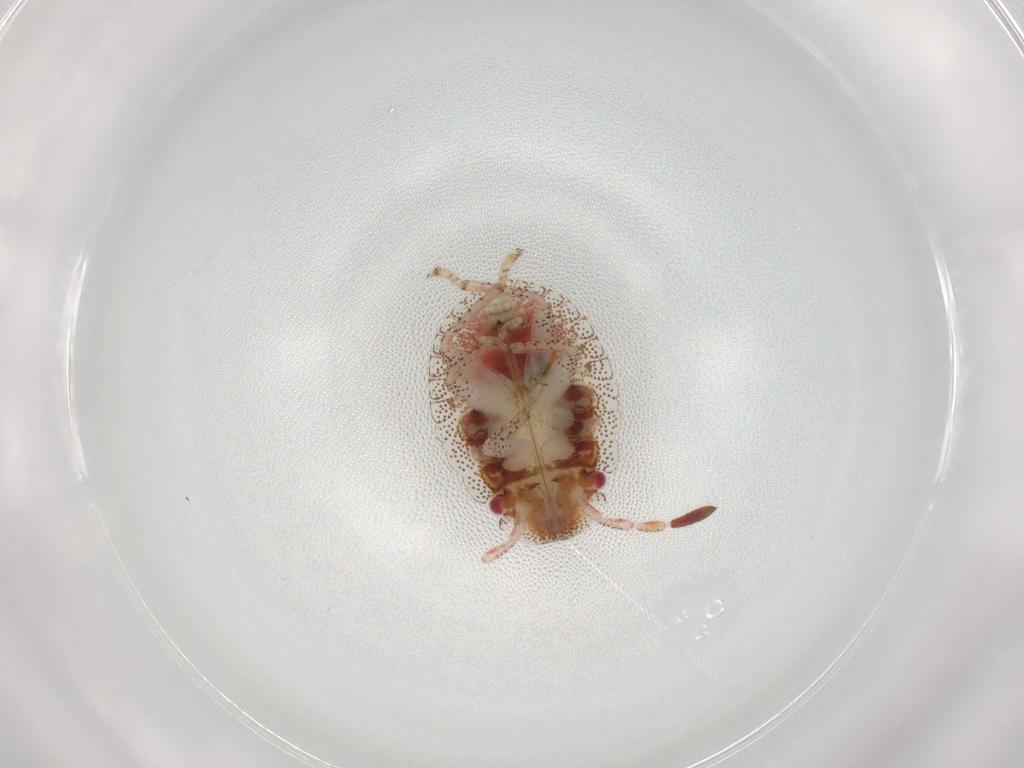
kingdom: Animalia
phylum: Arthropoda
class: Insecta
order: Hemiptera
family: Pentatomidae
